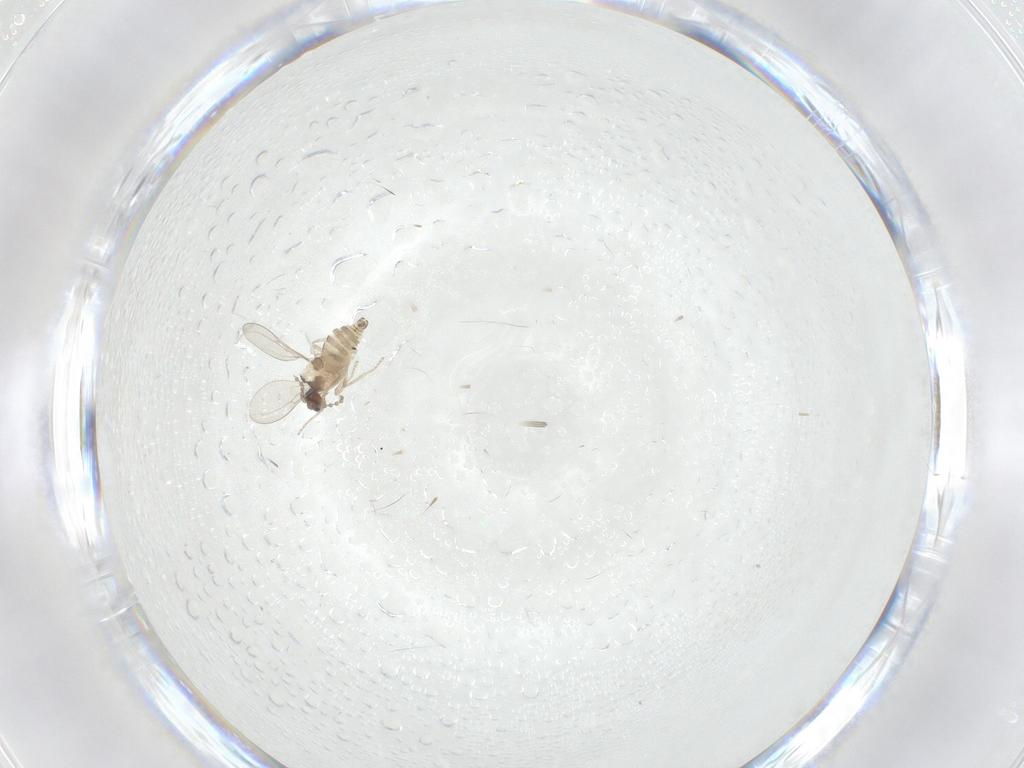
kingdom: Animalia
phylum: Arthropoda
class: Insecta
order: Diptera
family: Cecidomyiidae
